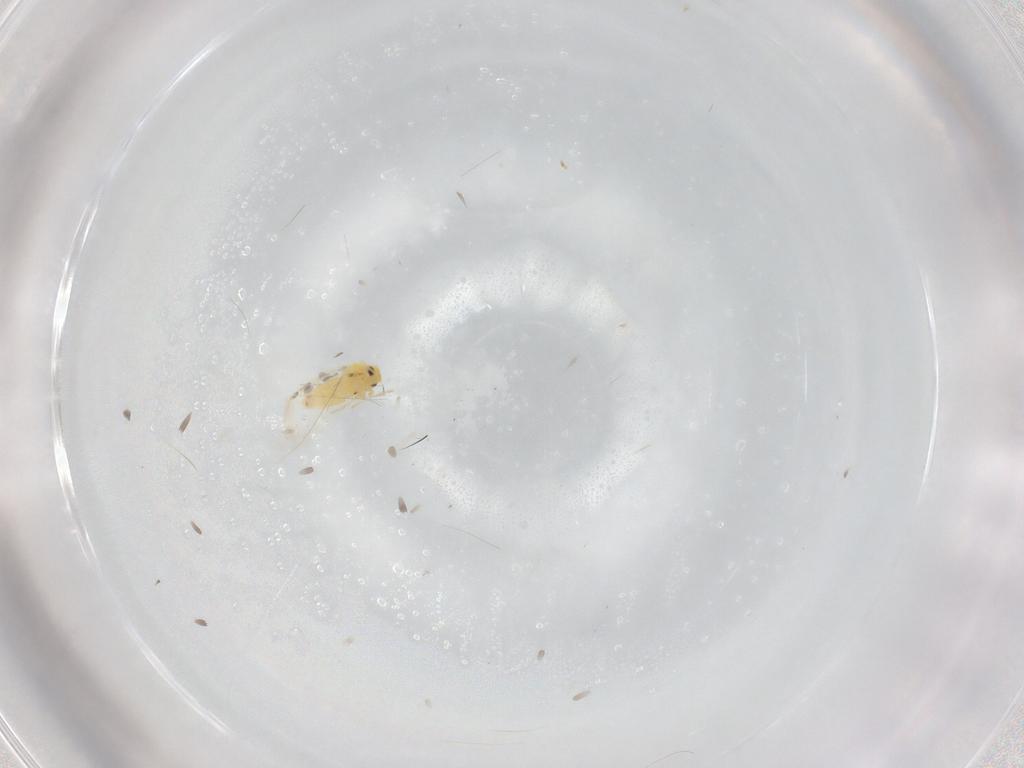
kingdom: Animalia
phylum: Arthropoda
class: Insecta
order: Hemiptera
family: Aleyrodidae
